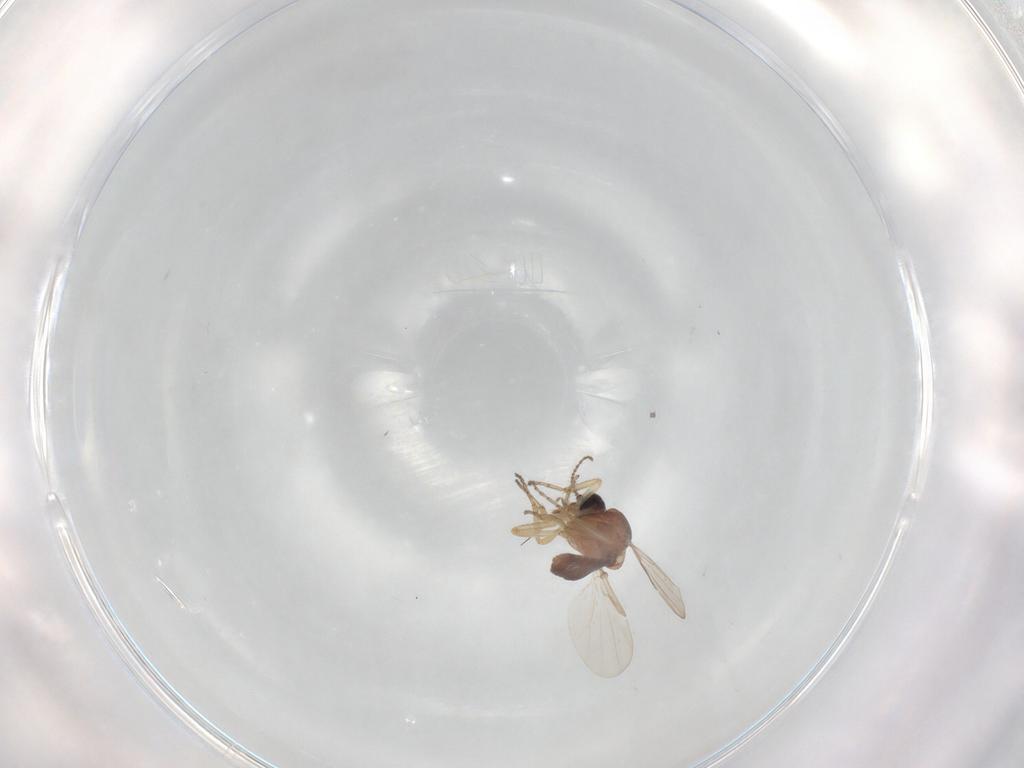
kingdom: Animalia
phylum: Arthropoda
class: Insecta
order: Diptera
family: Ceratopogonidae
